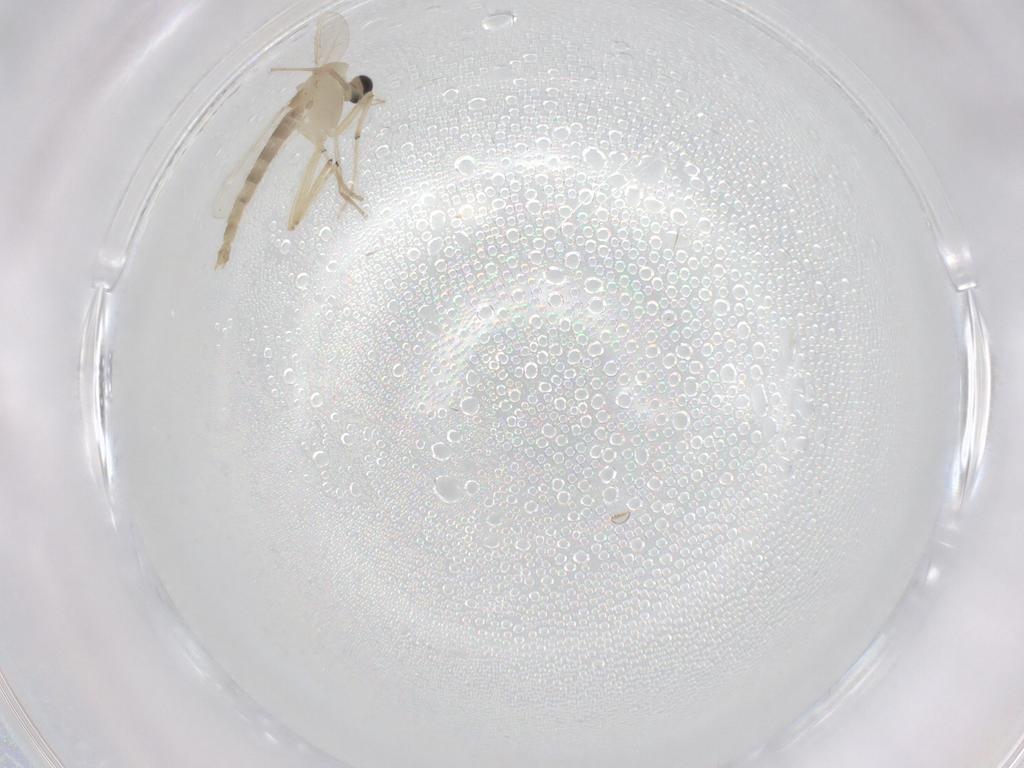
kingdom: Animalia
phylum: Arthropoda
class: Insecta
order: Diptera
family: Chironomidae
